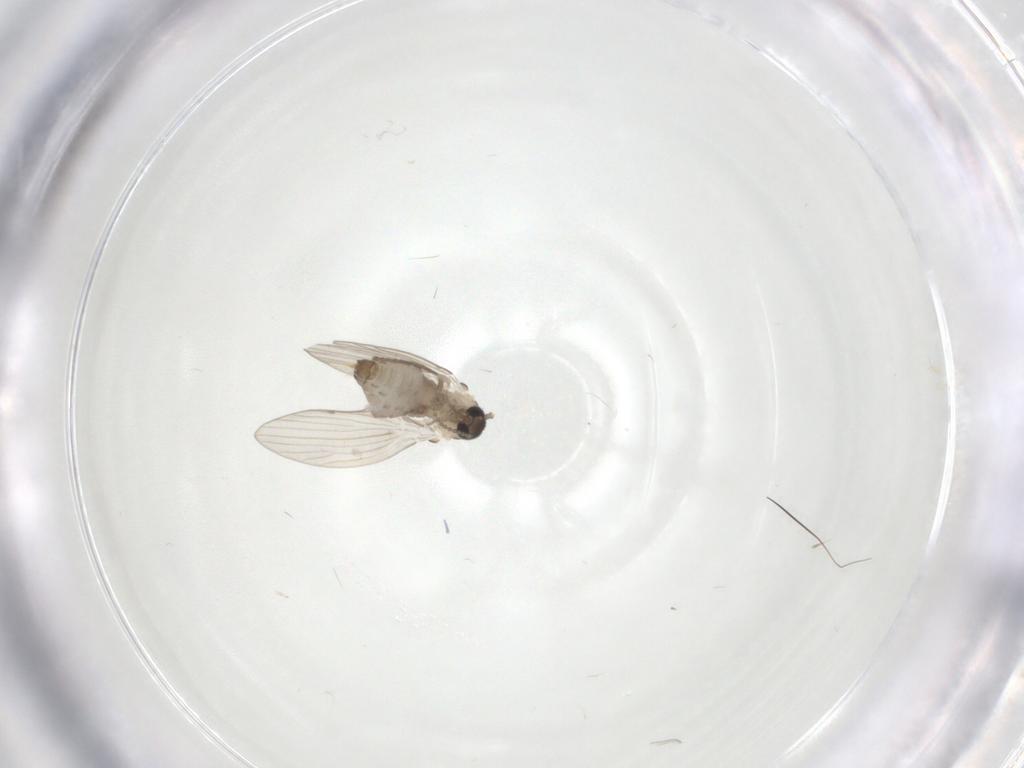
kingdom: Animalia
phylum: Arthropoda
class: Insecta
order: Diptera
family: Psychodidae
